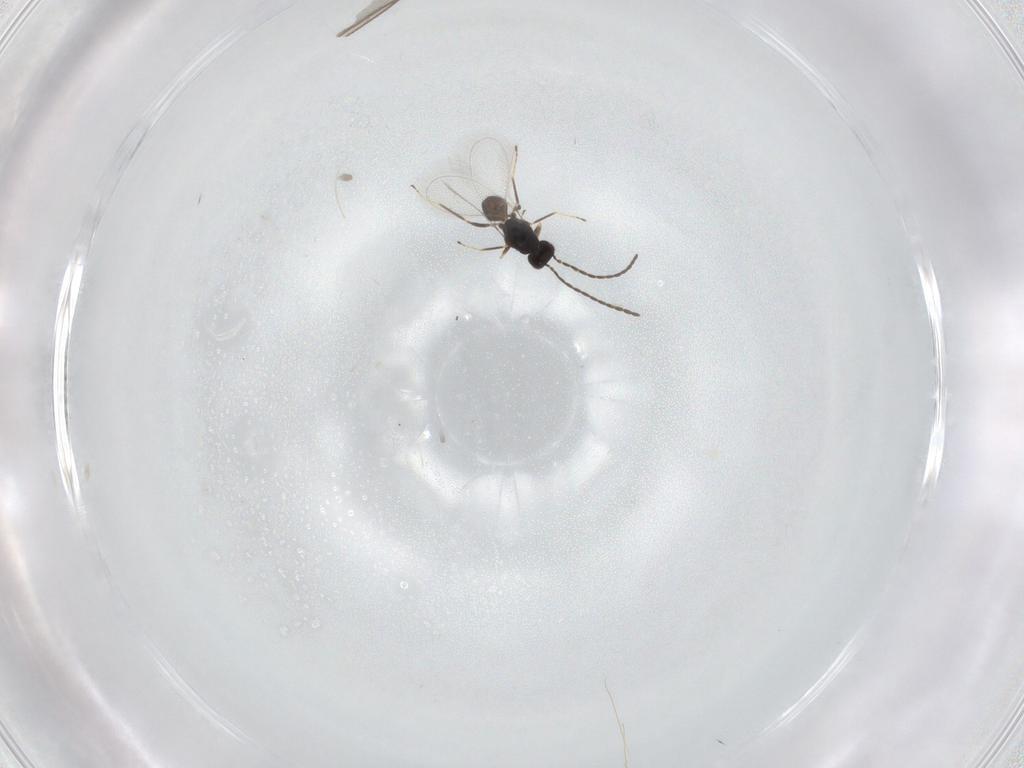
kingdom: Animalia
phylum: Arthropoda
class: Insecta
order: Hymenoptera
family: Mymaridae
